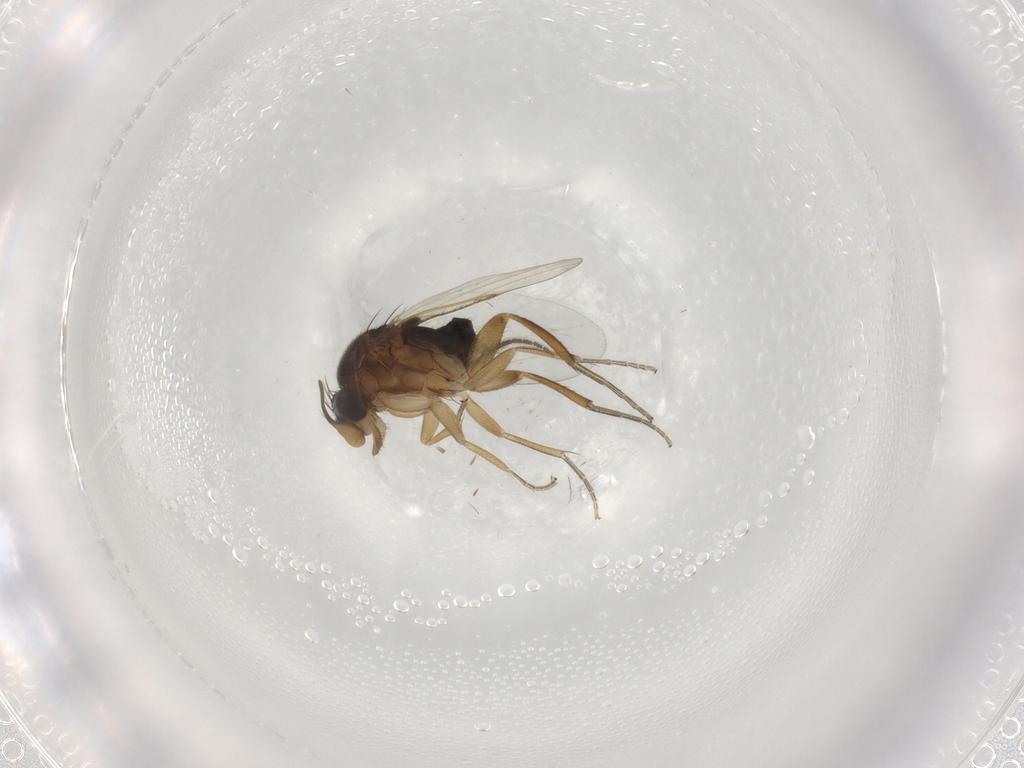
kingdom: Animalia
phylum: Arthropoda
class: Insecta
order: Diptera
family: Sciaridae
